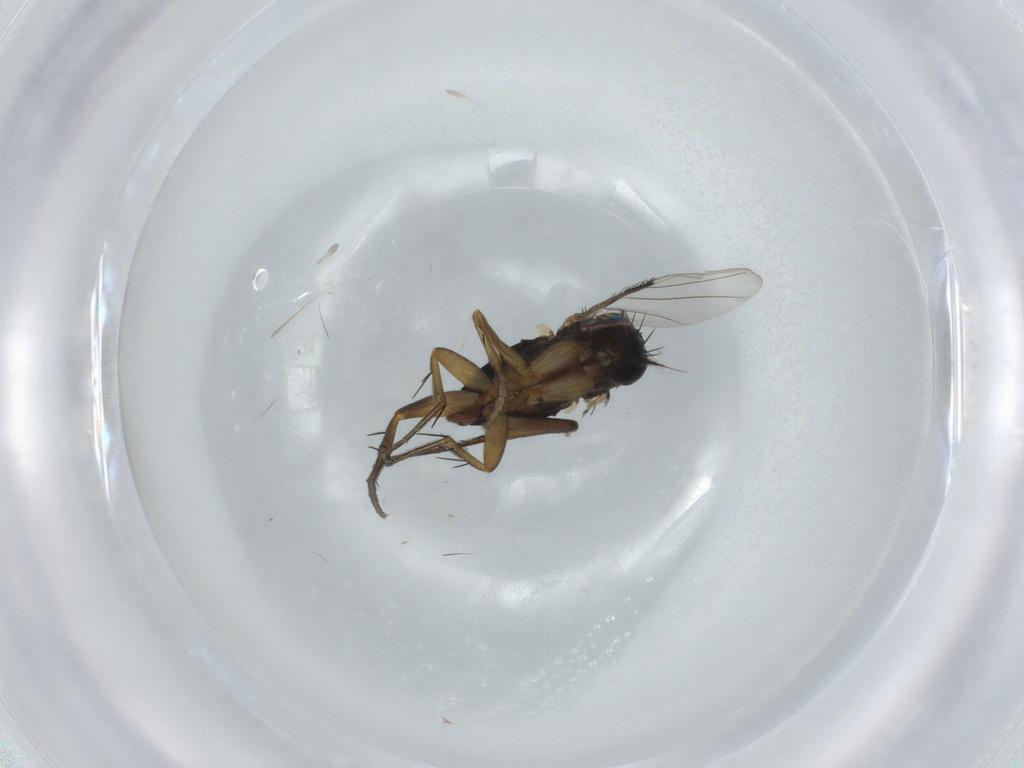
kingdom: Animalia
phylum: Arthropoda
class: Insecta
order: Diptera
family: Phoridae
